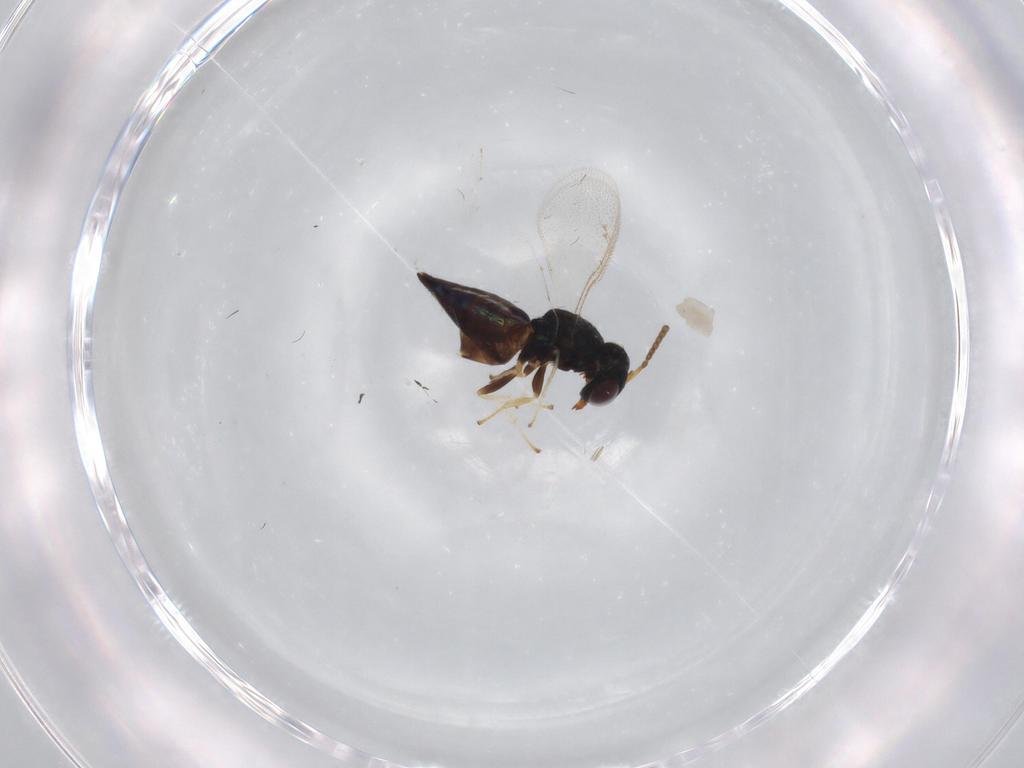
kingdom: Animalia
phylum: Arthropoda
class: Insecta
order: Hymenoptera
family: Pteromalidae
